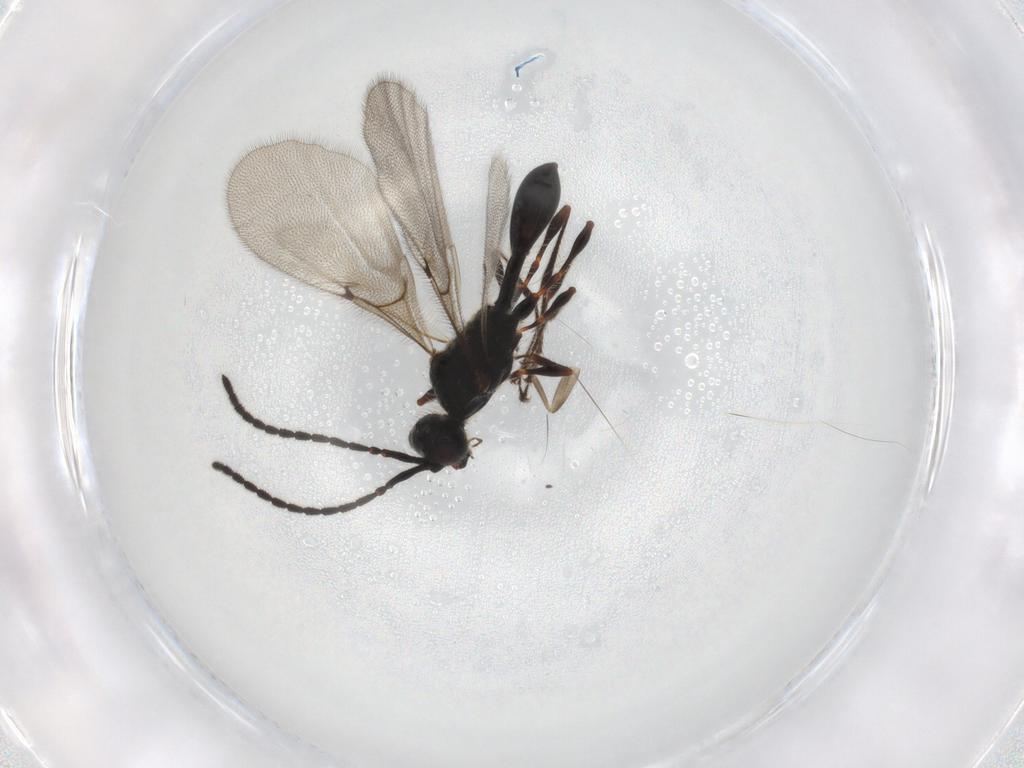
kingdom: Animalia
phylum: Arthropoda
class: Insecta
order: Hymenoptera
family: Diapriidae
